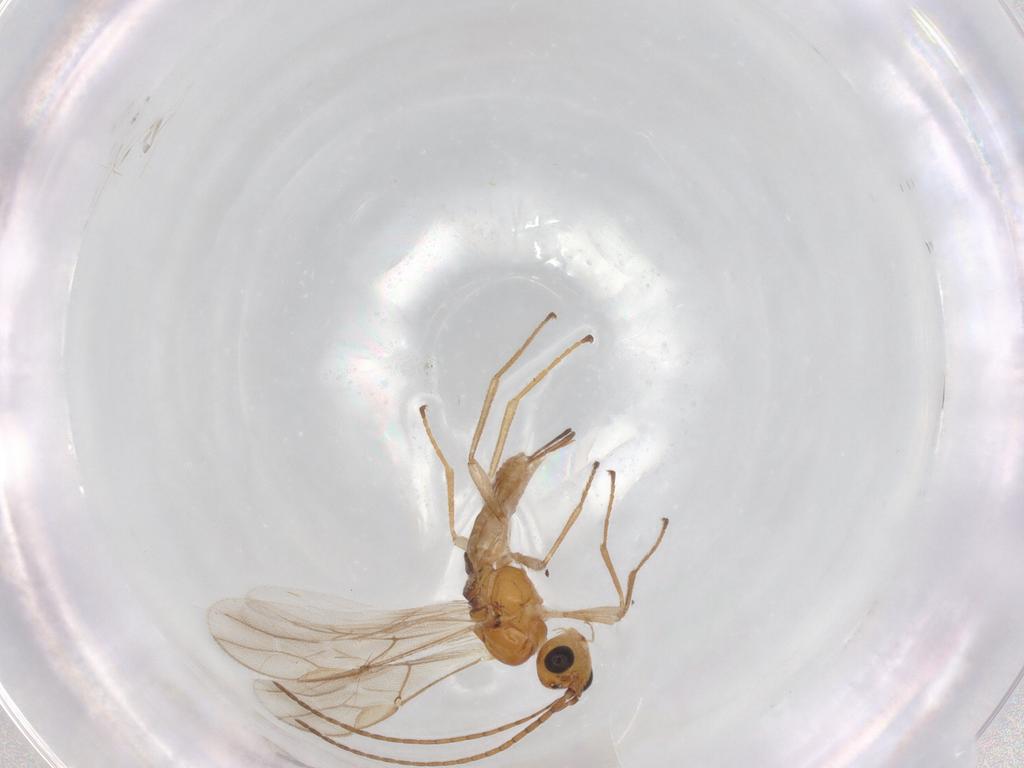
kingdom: Animalia
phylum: Arthropoda
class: Insecta
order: Hymenoptera
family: Braconidae
